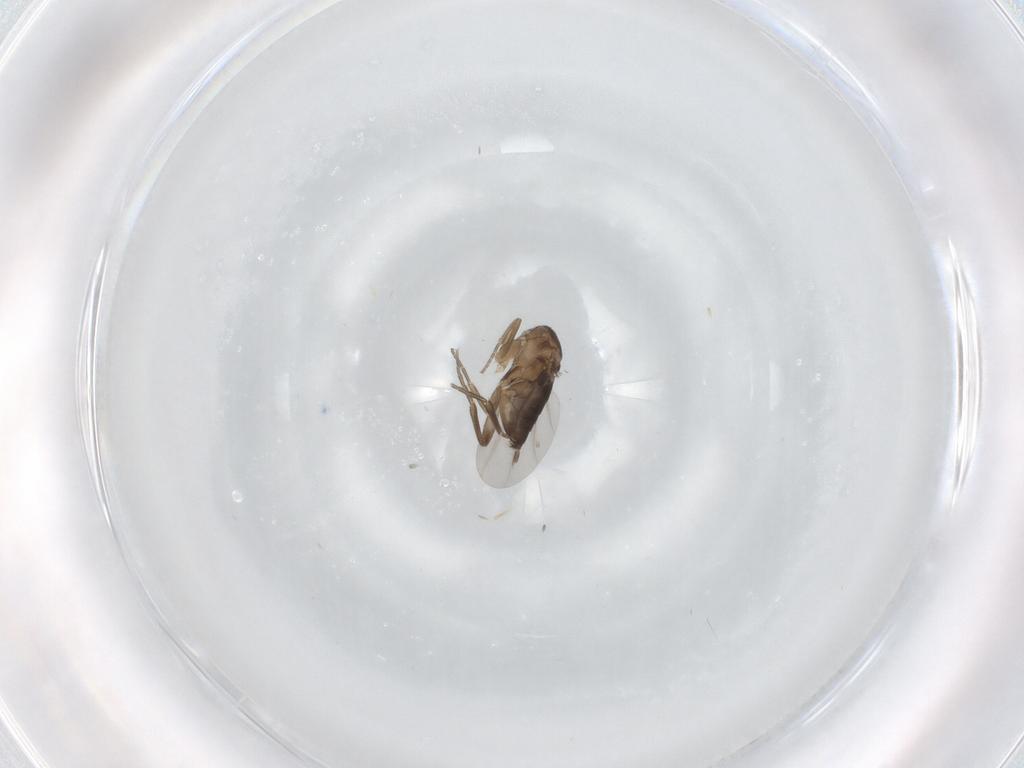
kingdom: Animalia
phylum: Arthropoda
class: Insecta
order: Diptera
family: Phoridae
